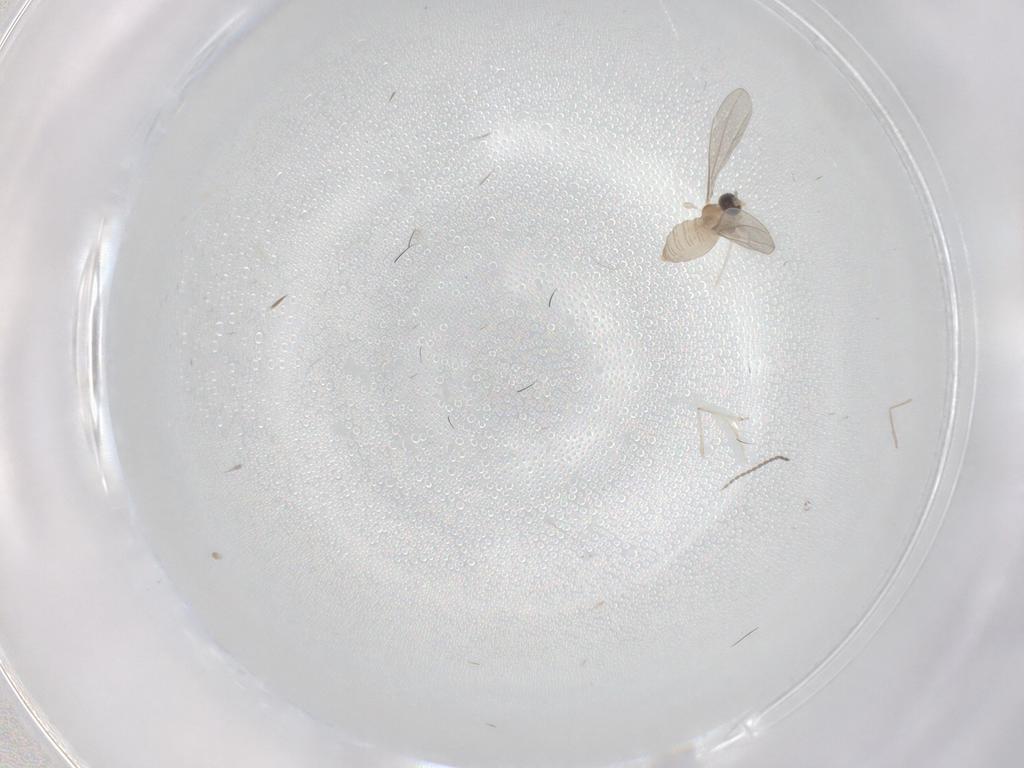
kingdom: Animalia
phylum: Arthropoda
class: Insecta
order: Diptera
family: Cecidomyiidae
